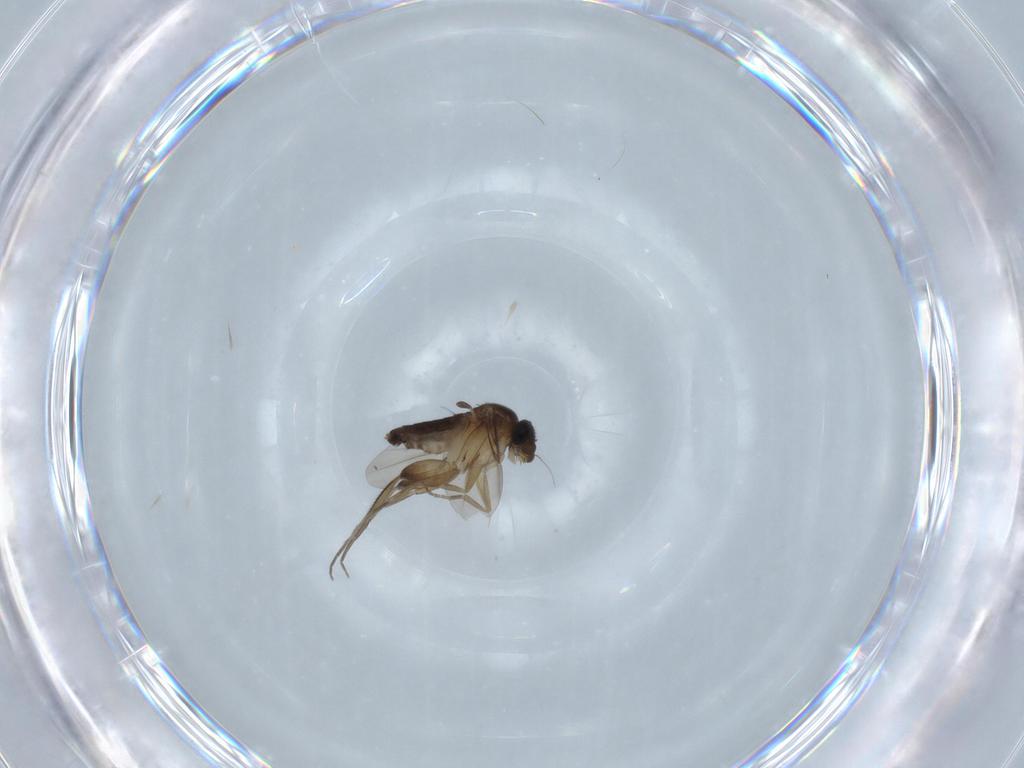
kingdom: Animalia
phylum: Arthropoda
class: Insecta
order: Diptera
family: Phoridae
